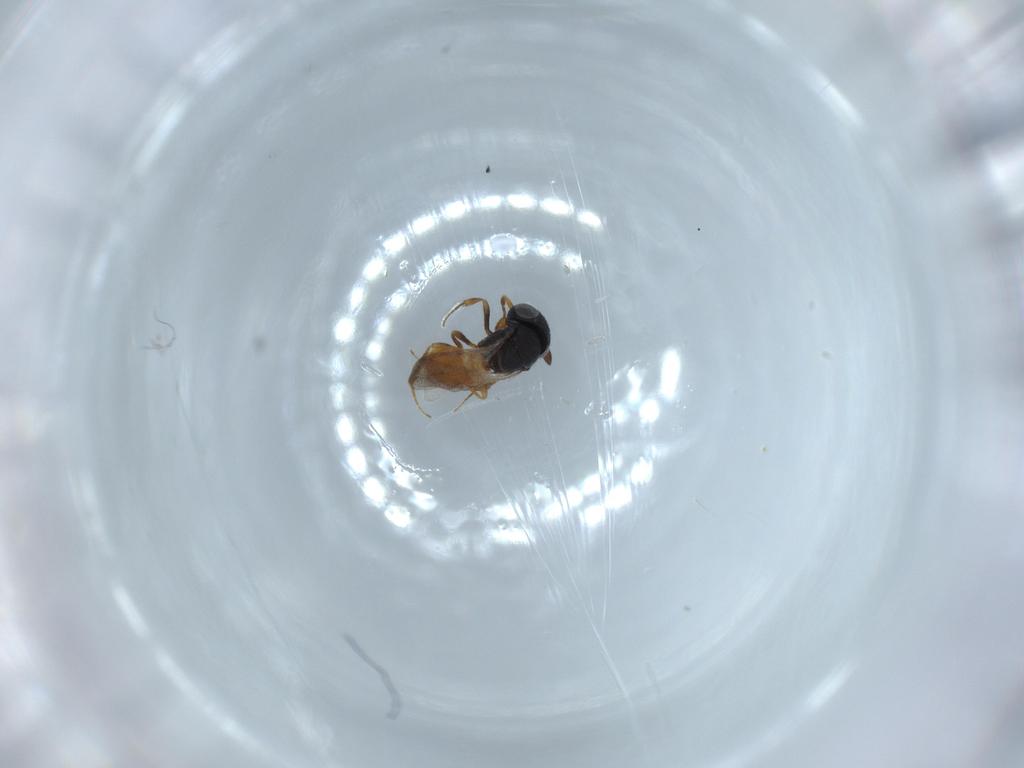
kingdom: Animalia
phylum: Arthropoda
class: Insecta
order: Hymenoptera
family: Scelionidae
